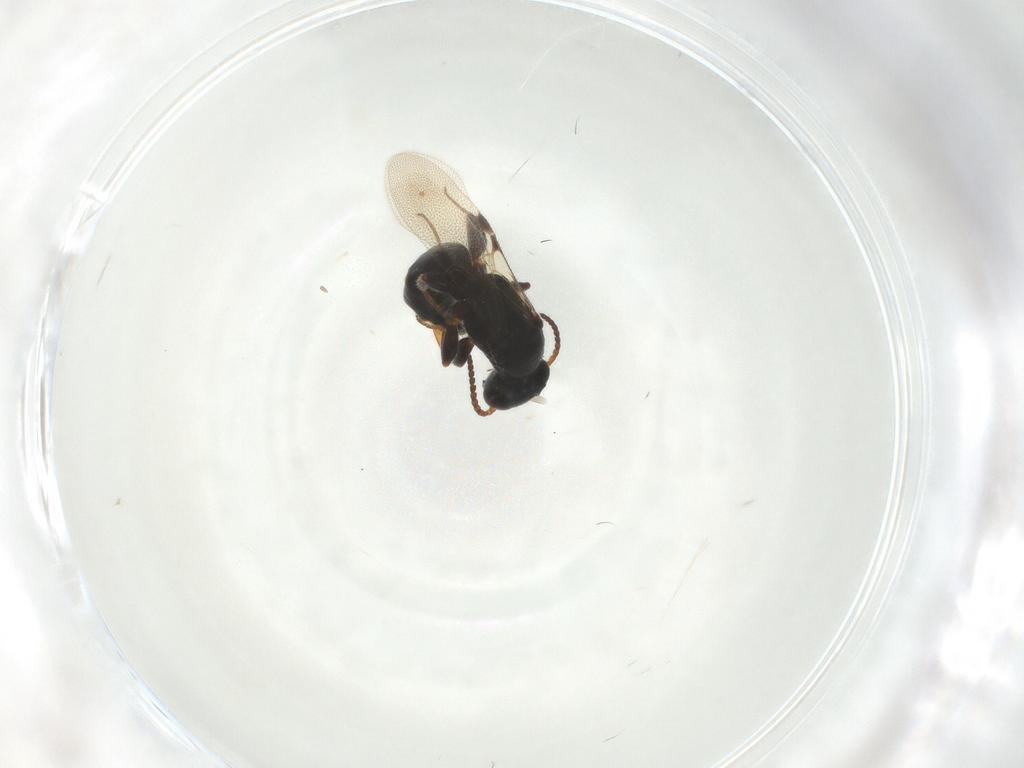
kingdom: Animalia
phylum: Arthropoda
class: Insecta
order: Hymenoptera
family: Bethylidae
